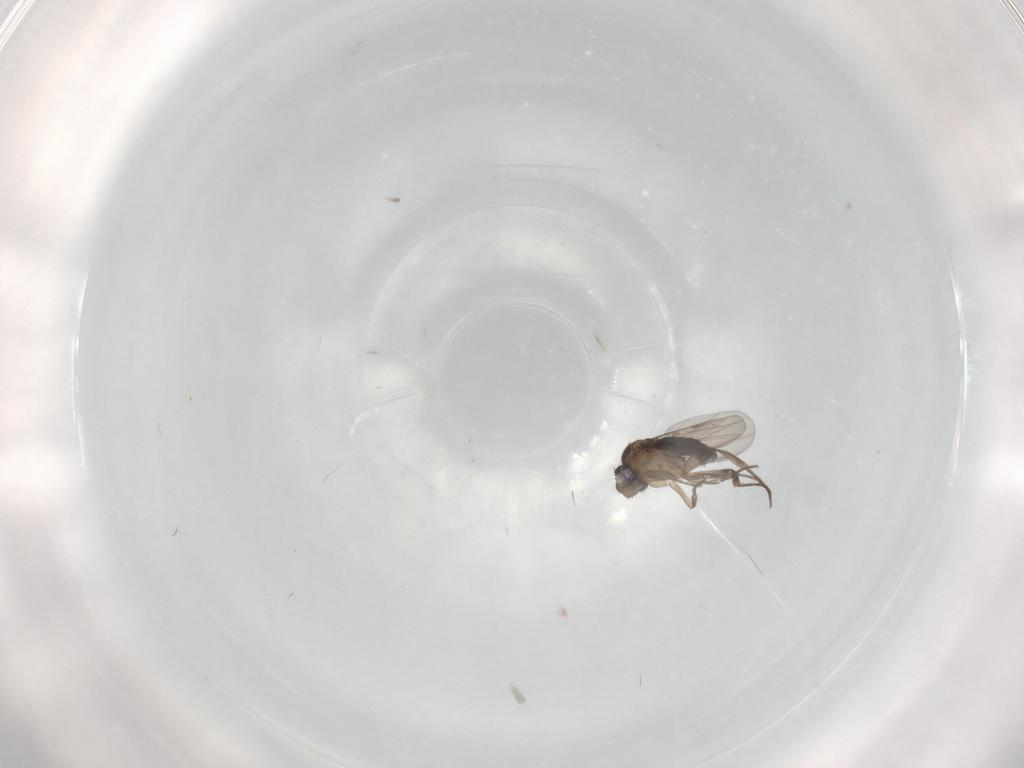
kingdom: Animalia
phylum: Arthropoda
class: Insecta
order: Diptera
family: Phoridae
